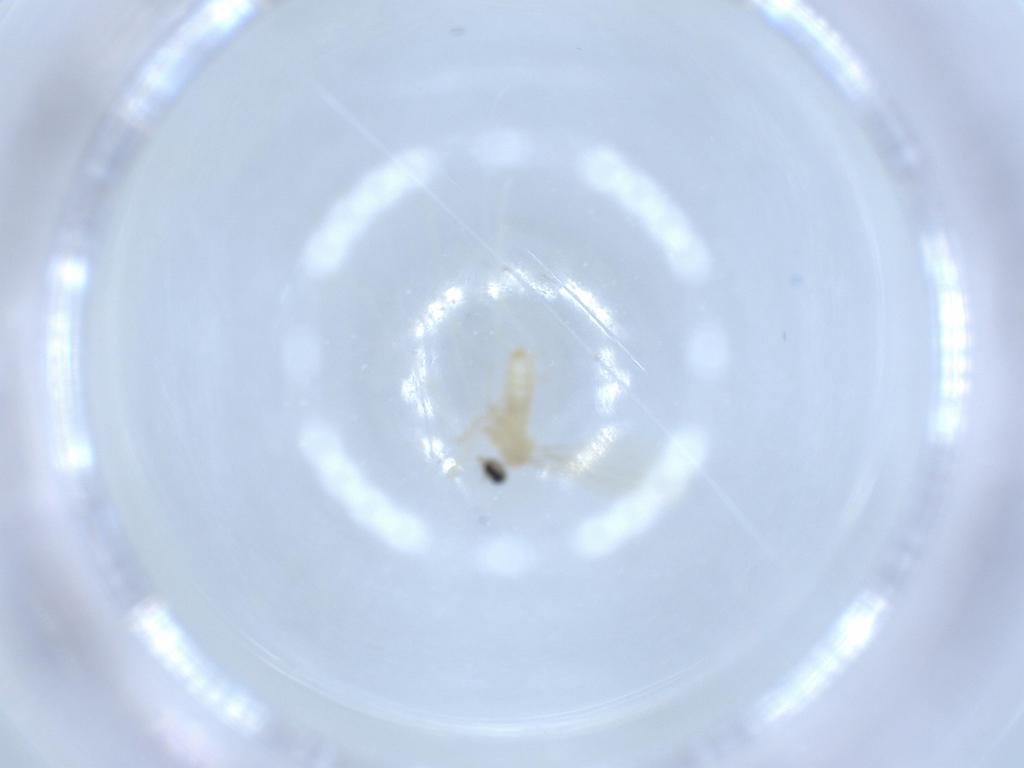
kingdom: Animalia
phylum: Arthropoda
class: Insecta
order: Diptera
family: Cecidomyiidae
